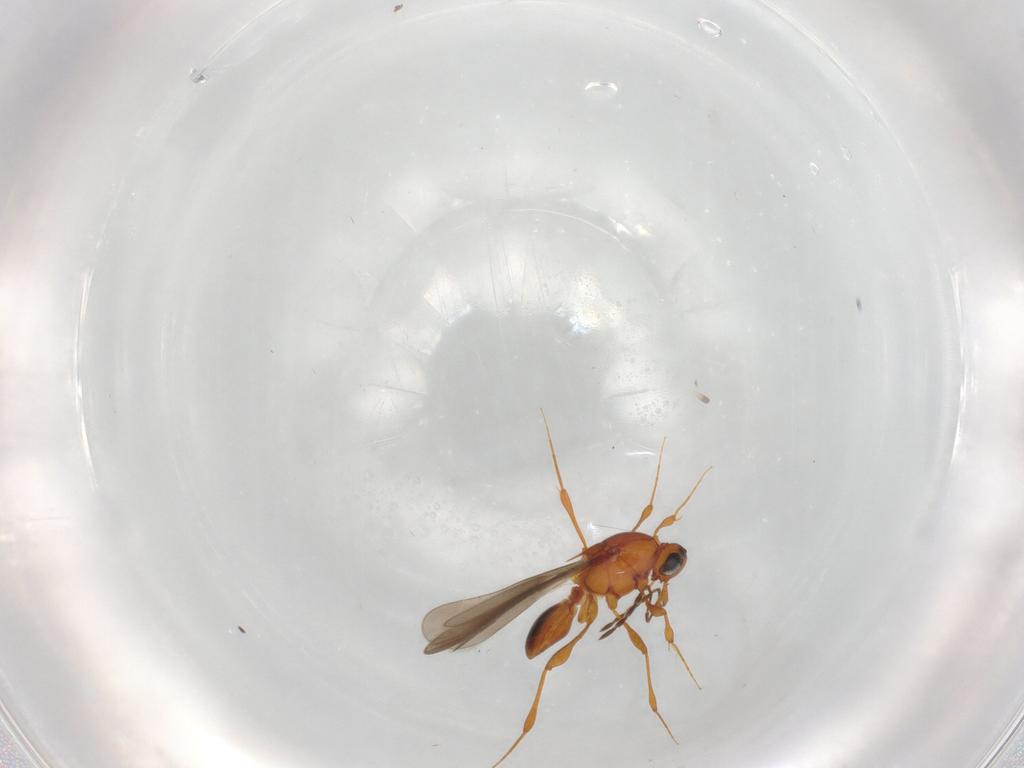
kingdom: Animalia
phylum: Arthropoda
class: Insecta
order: Hymenoptera
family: Platygastridae
